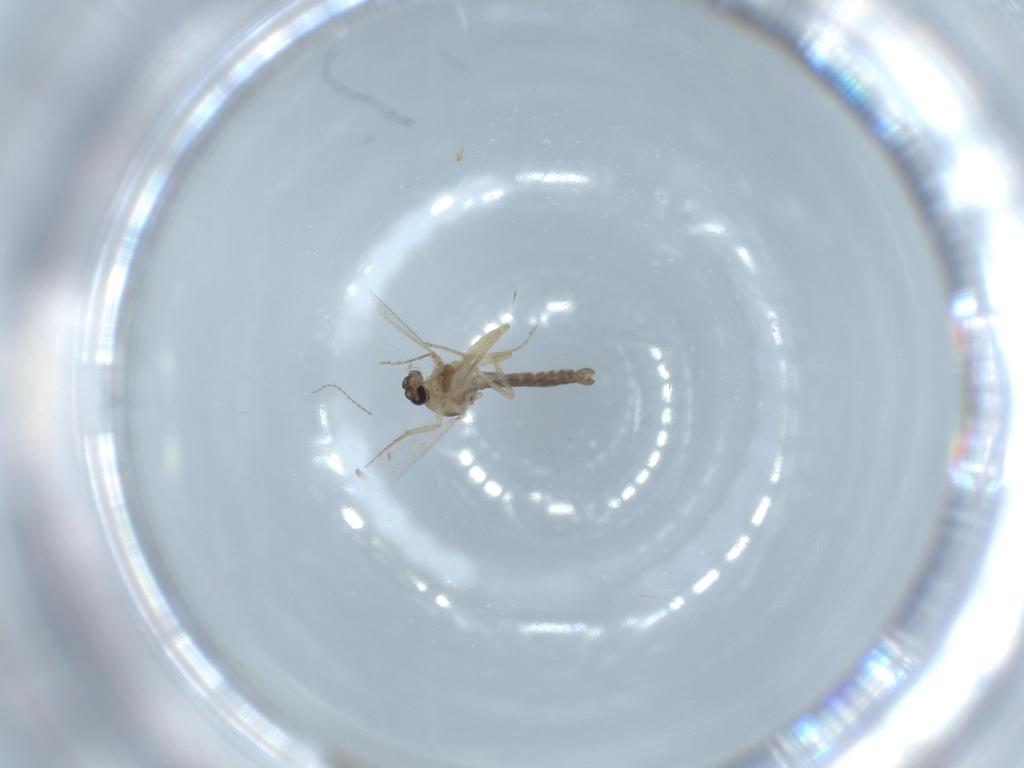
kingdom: Animalia
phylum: Arthropoda
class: Insecta
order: Diptera
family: Ceratopogonidae
